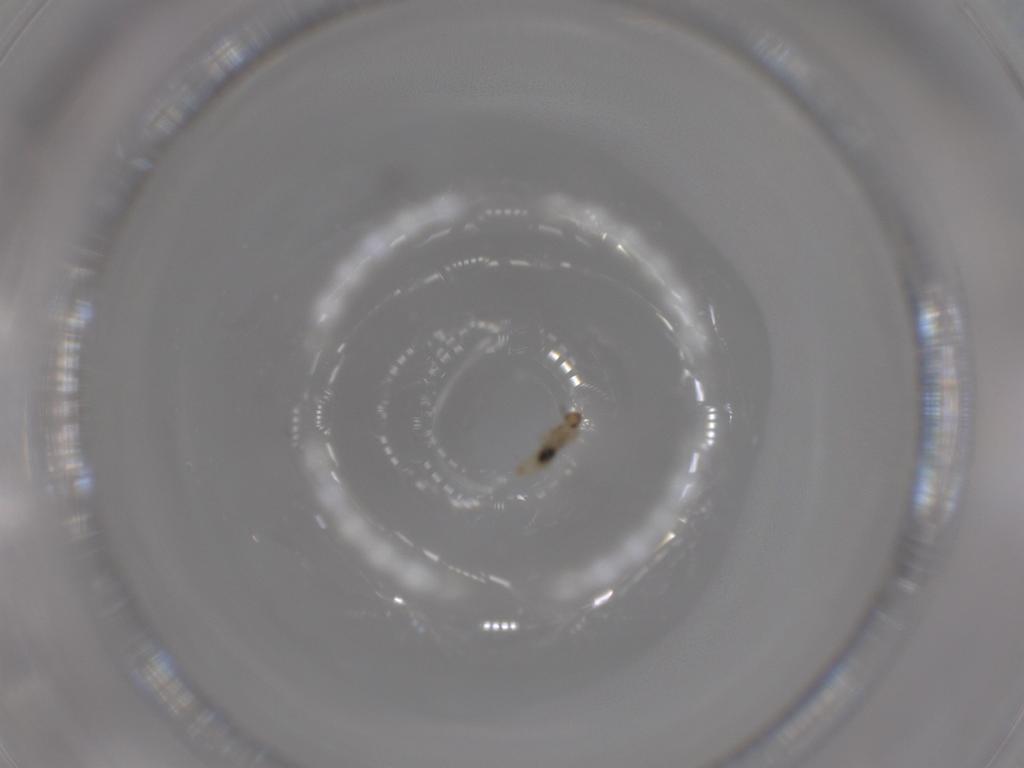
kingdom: Animalia
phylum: Arthropoda
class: Insecta
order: Diptera
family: Cecidomyiidae
